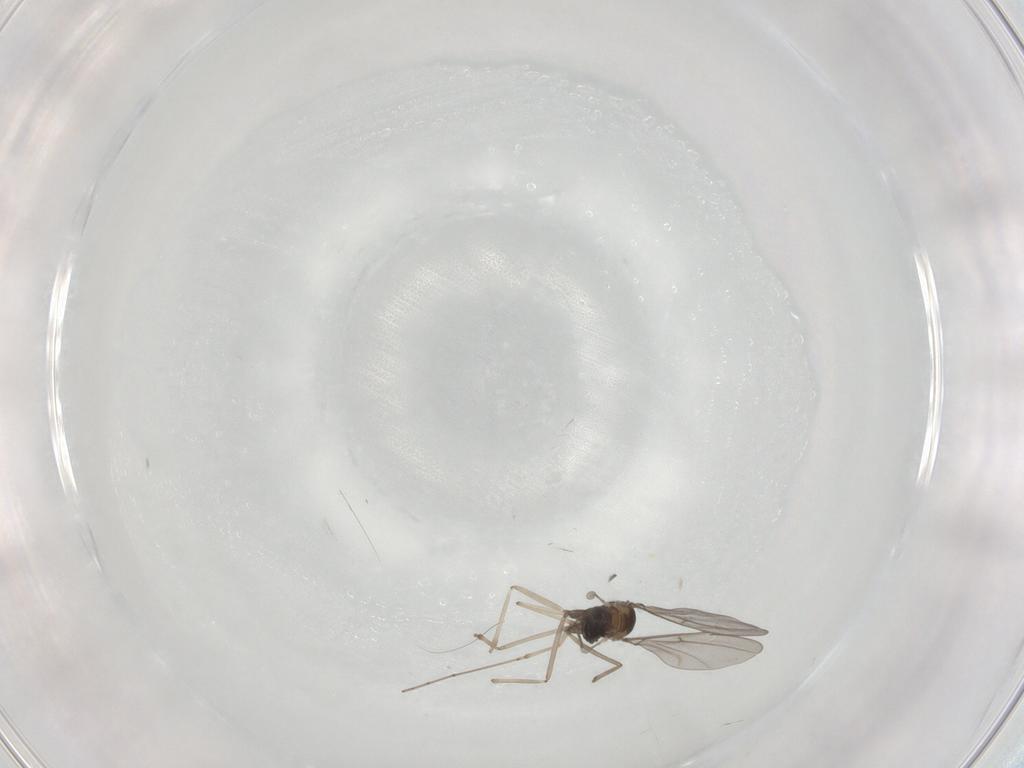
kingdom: Animalia
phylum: Arthropoda
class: Insecta
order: Diptera
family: Cecidomyiidae
